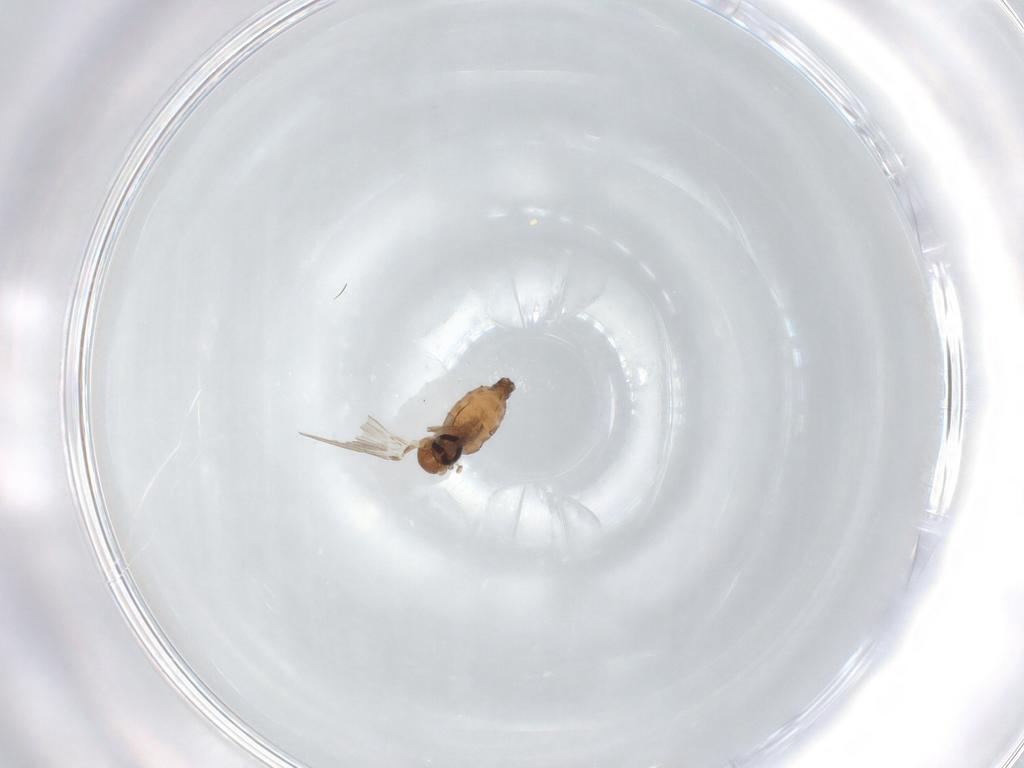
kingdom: Animalia
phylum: Arthropoda
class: Insecta
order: Diptera
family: Psychodidae
